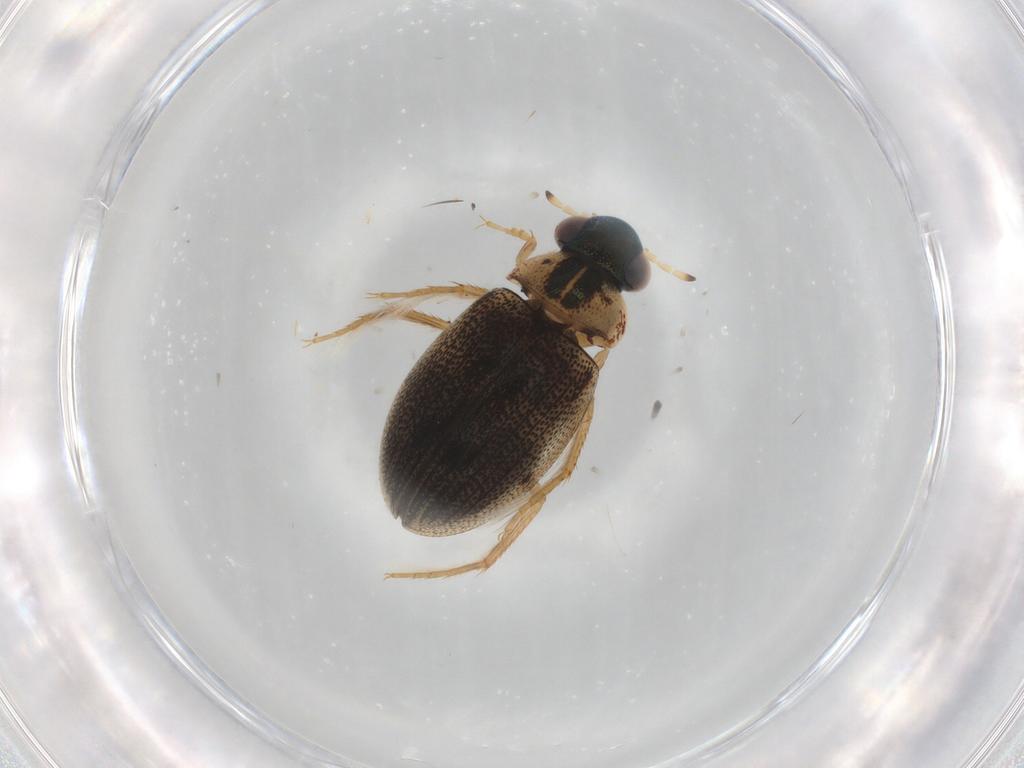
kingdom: Animalia
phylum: Arthropoda
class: Insecta
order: Coleoptera
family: Hydrophilidae
